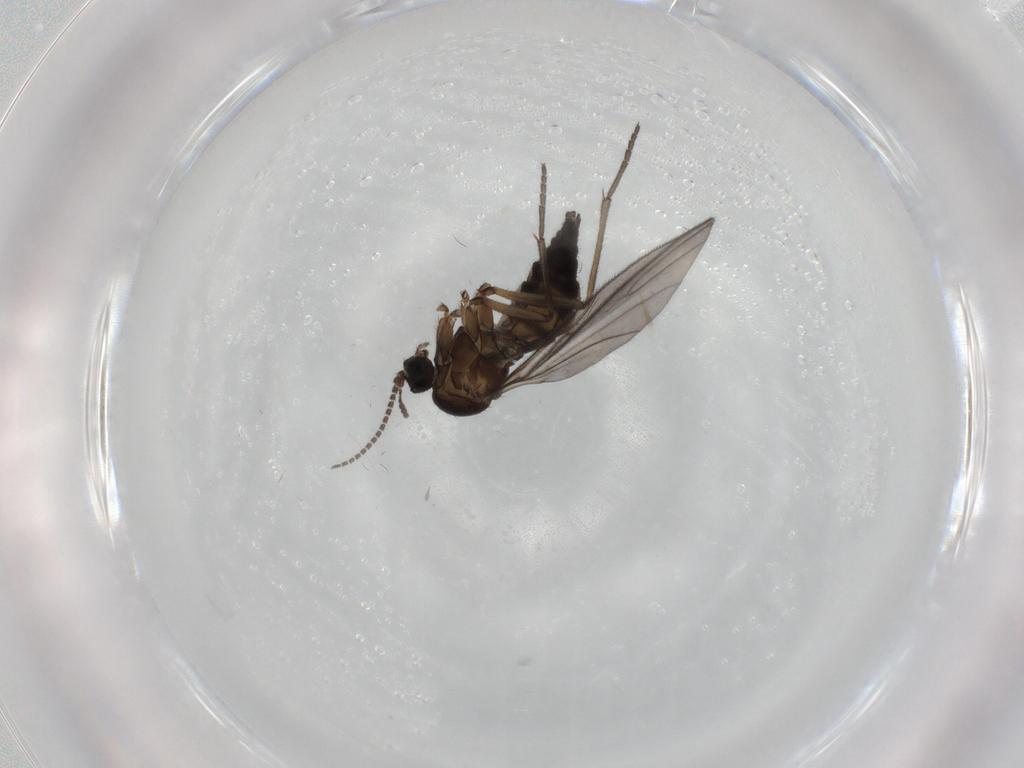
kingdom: Animalia
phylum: Arthropoda
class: Insecta
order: Diptera
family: Sciaridae
